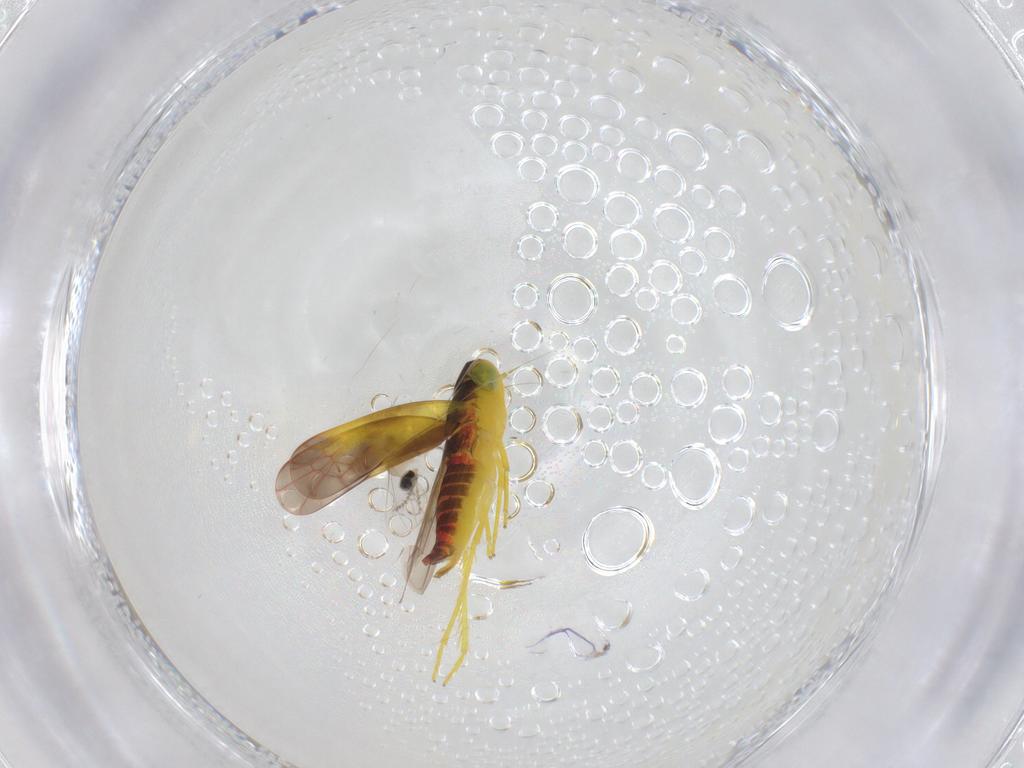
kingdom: Animalia
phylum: Arthropoda
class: Insecta
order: Hemiptera
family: Cicadellidae
